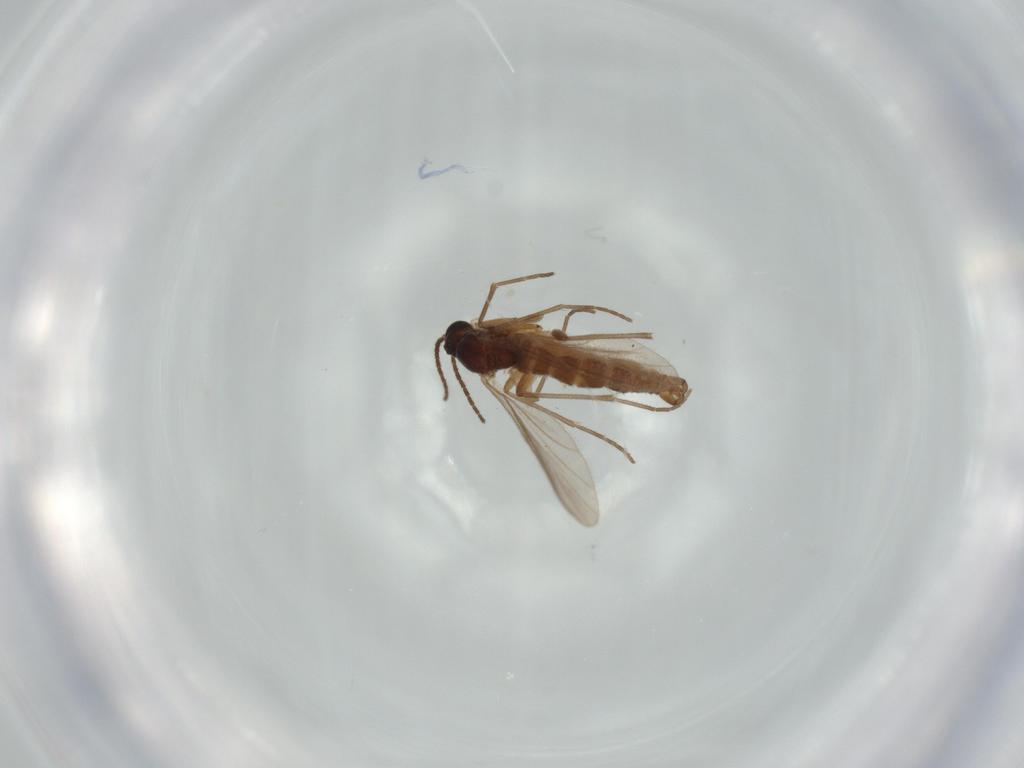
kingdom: Animalia
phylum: Arthropoda
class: Insecta
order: Diptera
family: Sciaridae
